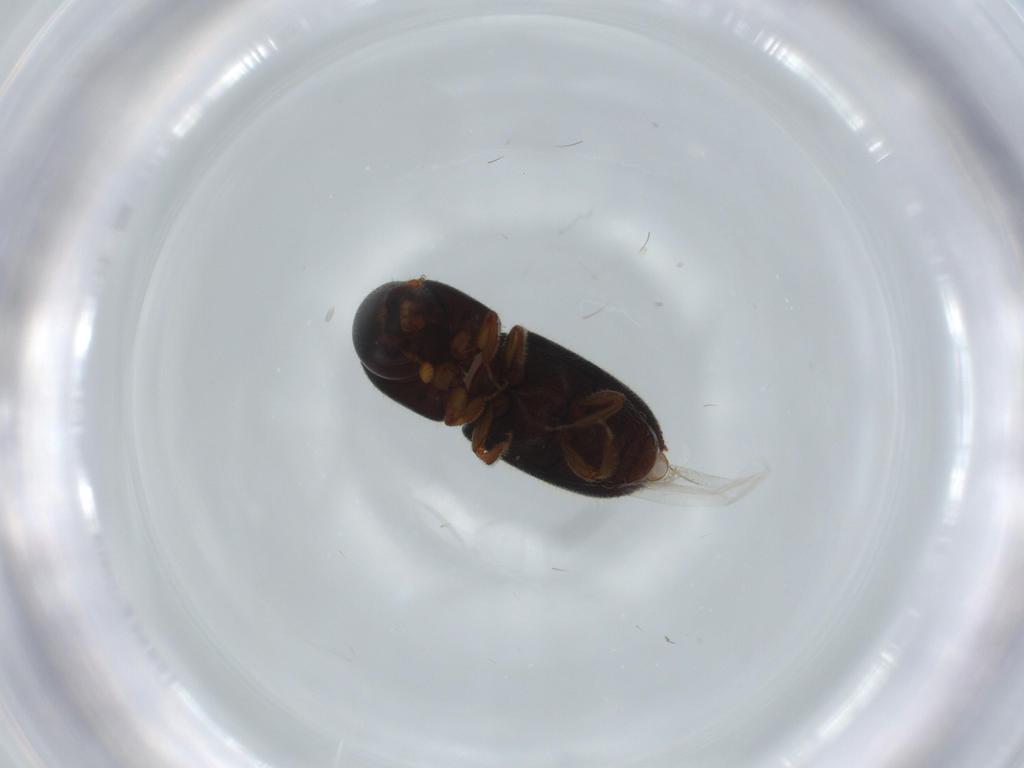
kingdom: Animalia
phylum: Arthropoda
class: Insecta
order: Coleoptera
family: Curculionidae
